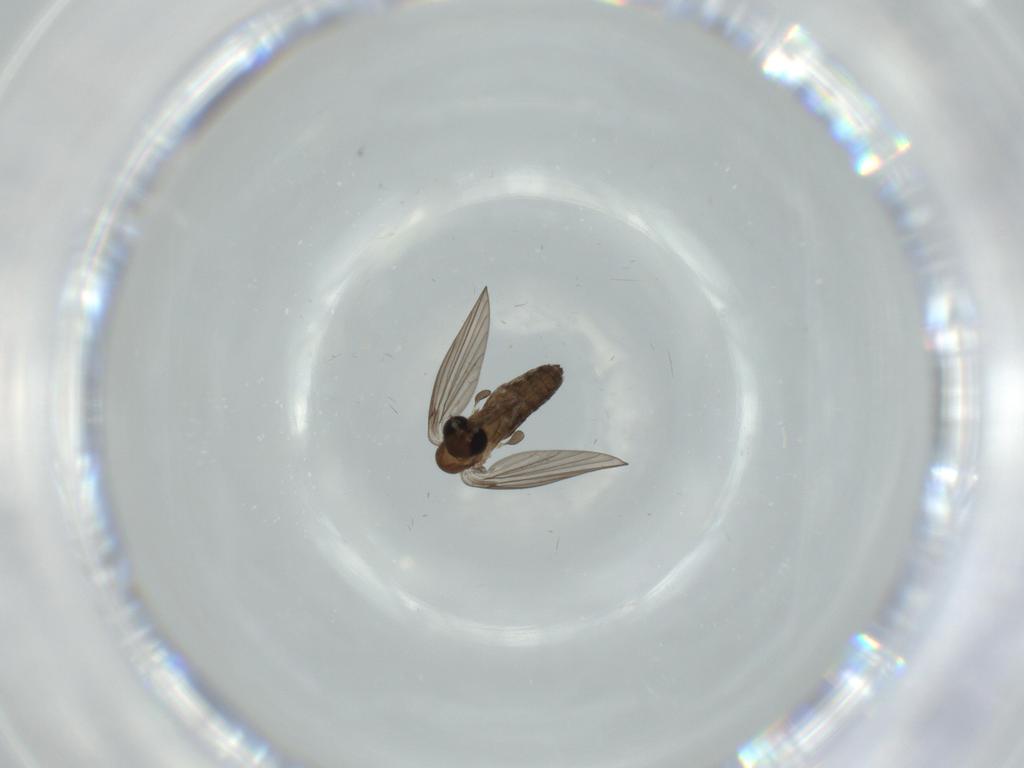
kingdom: Animalia
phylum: Arthropoda
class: Insecta
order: Diptera
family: Psychodidae
